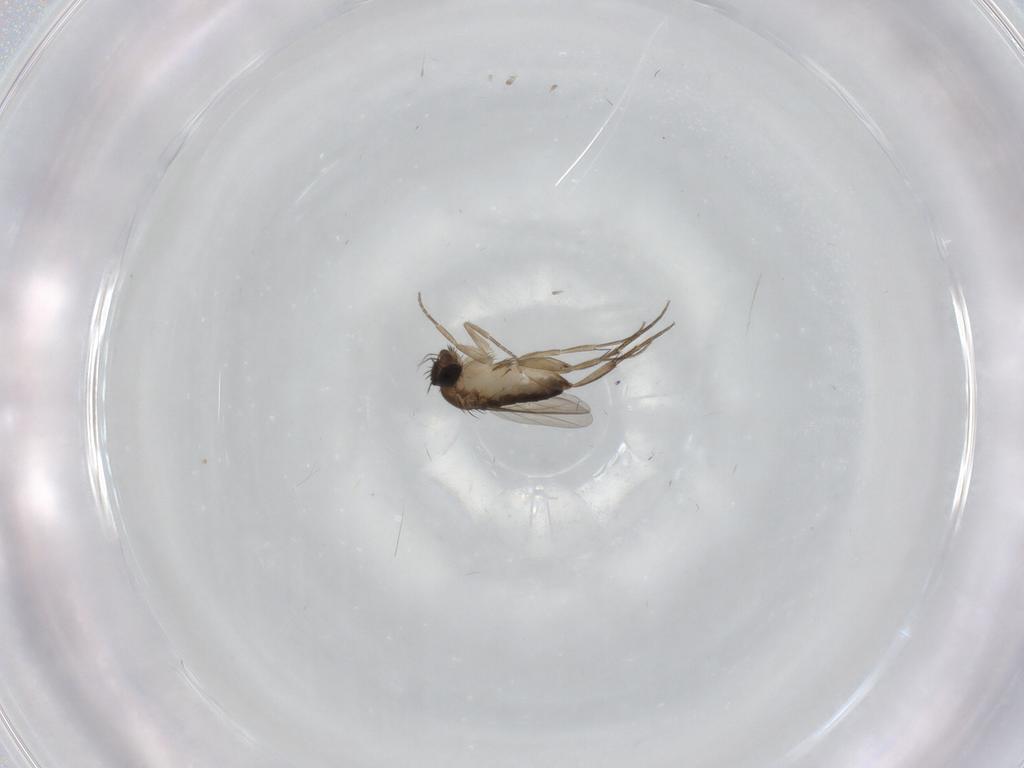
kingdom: Animalia
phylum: Arthropoda
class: Insecta
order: Diptera
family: Phoridae
